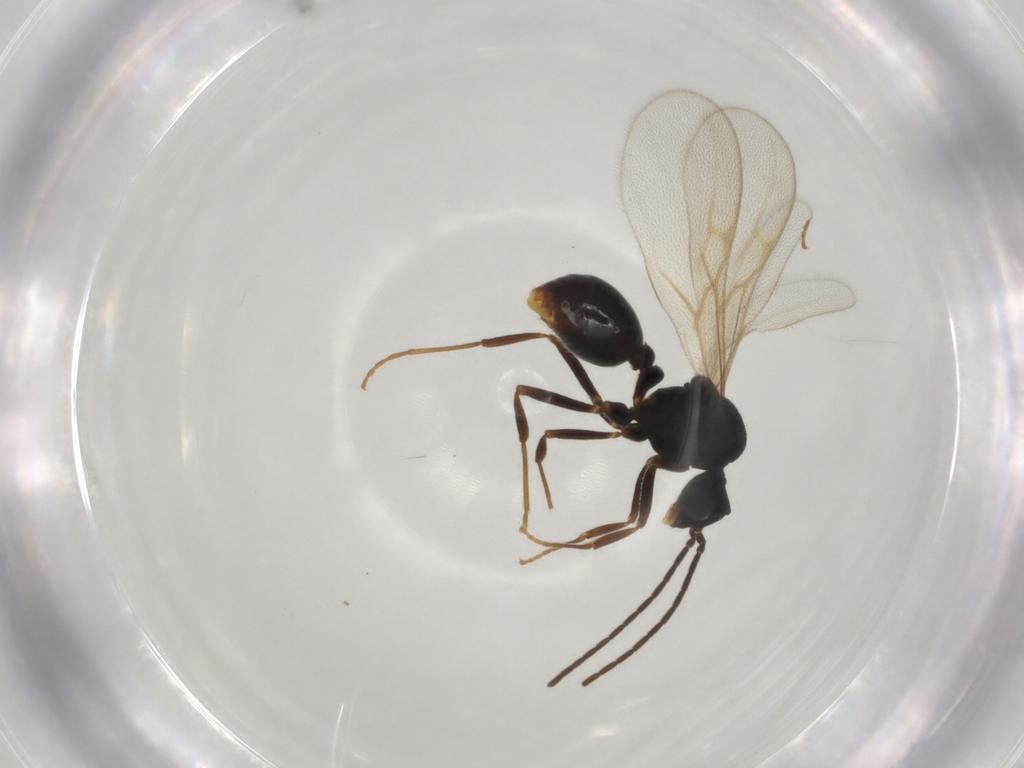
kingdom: Animalia
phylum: Arthropoda
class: Insecta
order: Hymenoptera
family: Formicidae
